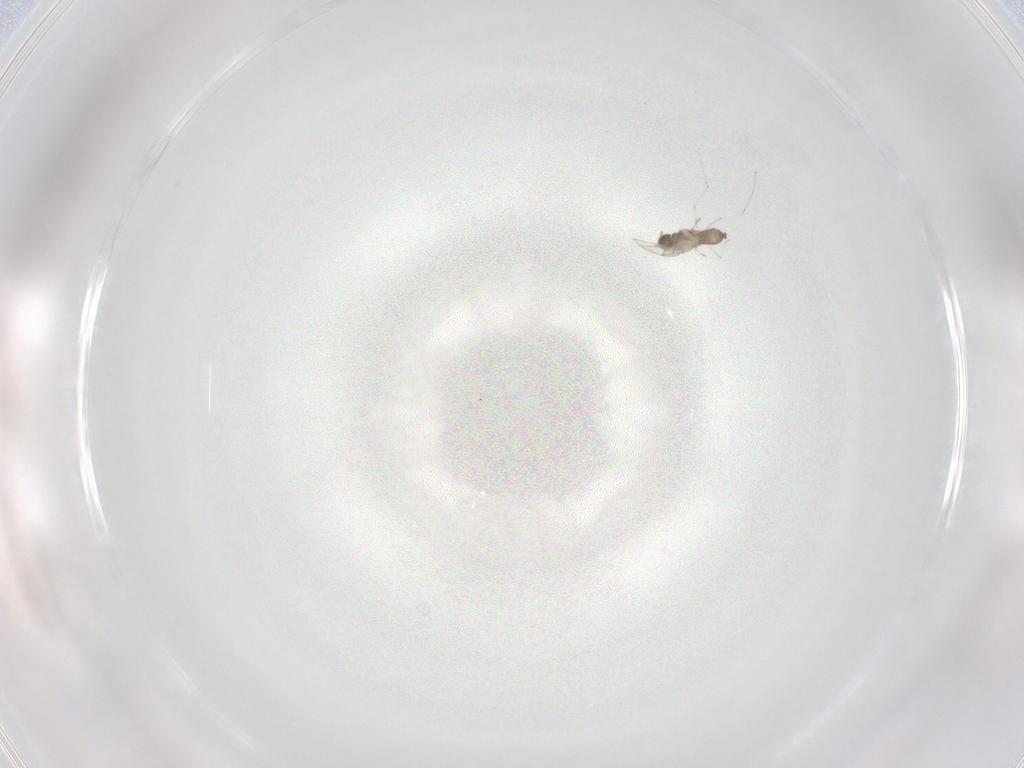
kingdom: Animalia
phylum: Arthropoda
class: Insecta
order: Diptera
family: Cecidomyiidae
